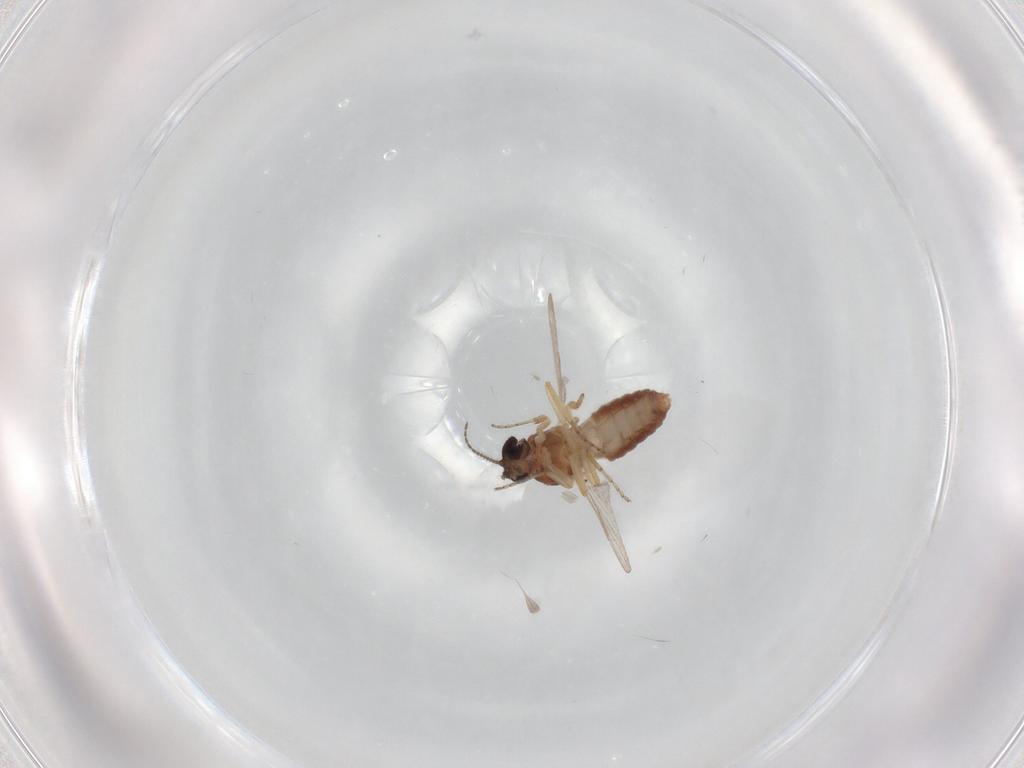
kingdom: Animalia
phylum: Arthropoda
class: Insecta
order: Diptera
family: Ceratopogonidae
